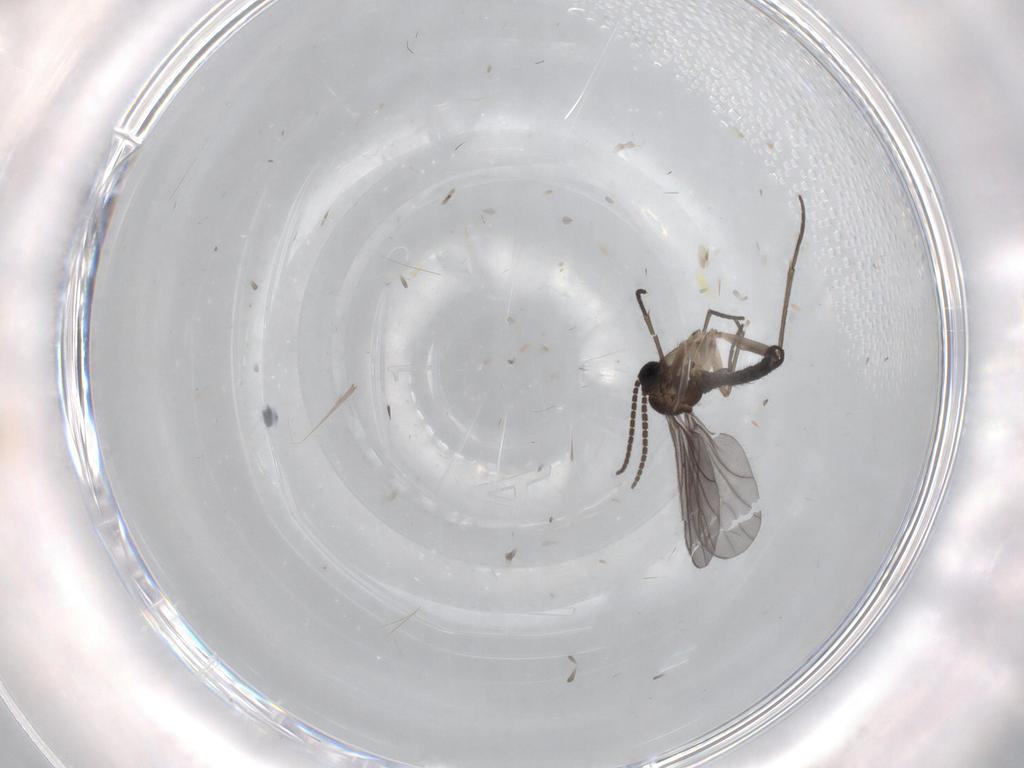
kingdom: Animalia
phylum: Arthropoda
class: Insecta
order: Diptera
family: Sciaridae
